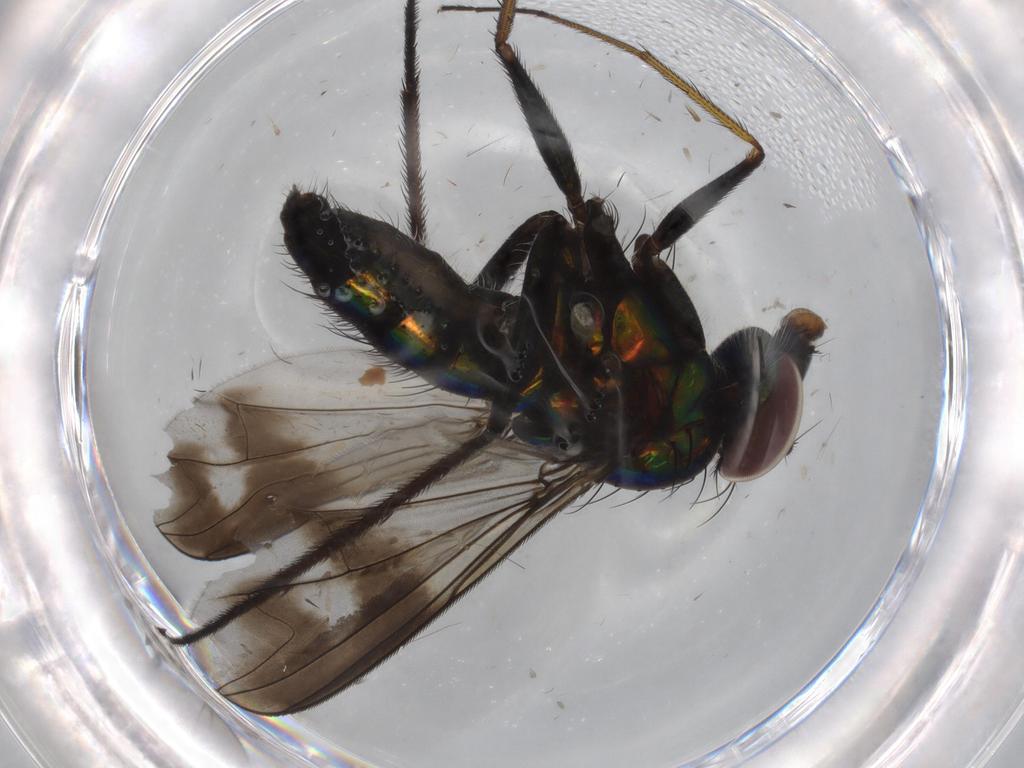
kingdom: Animalia
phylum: Arthropoda
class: Insecta
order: Diptera
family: Dolichopodidae
